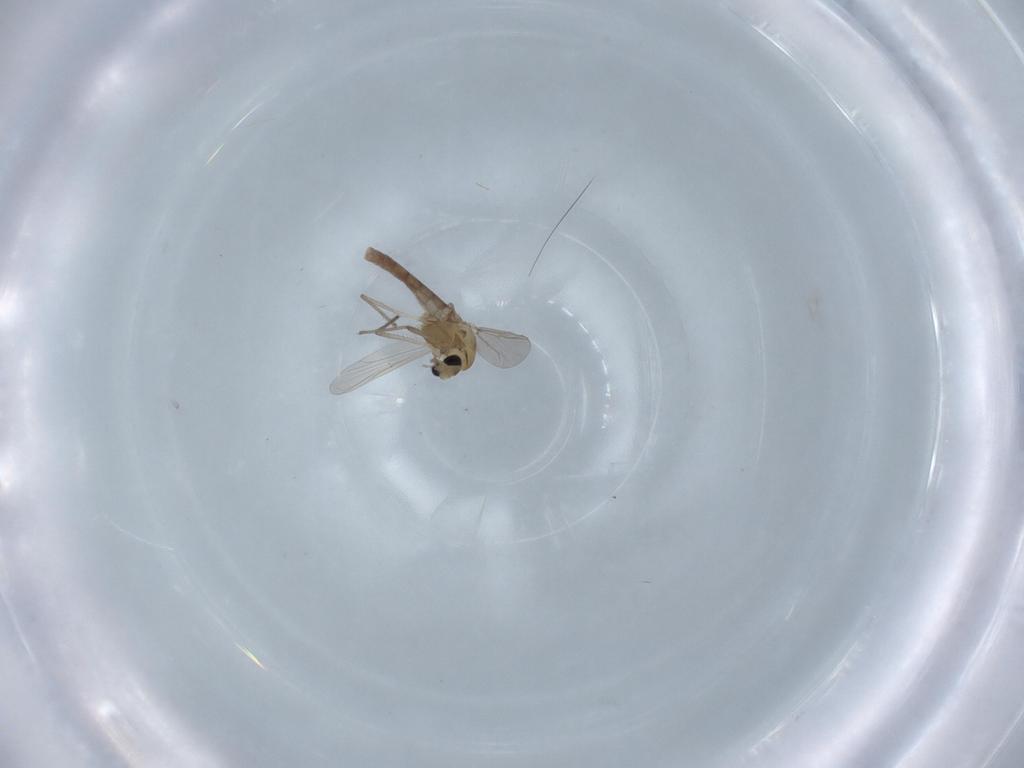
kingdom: Animalia
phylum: Arthropoda
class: Insecta
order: Diptera
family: Chironomidae
